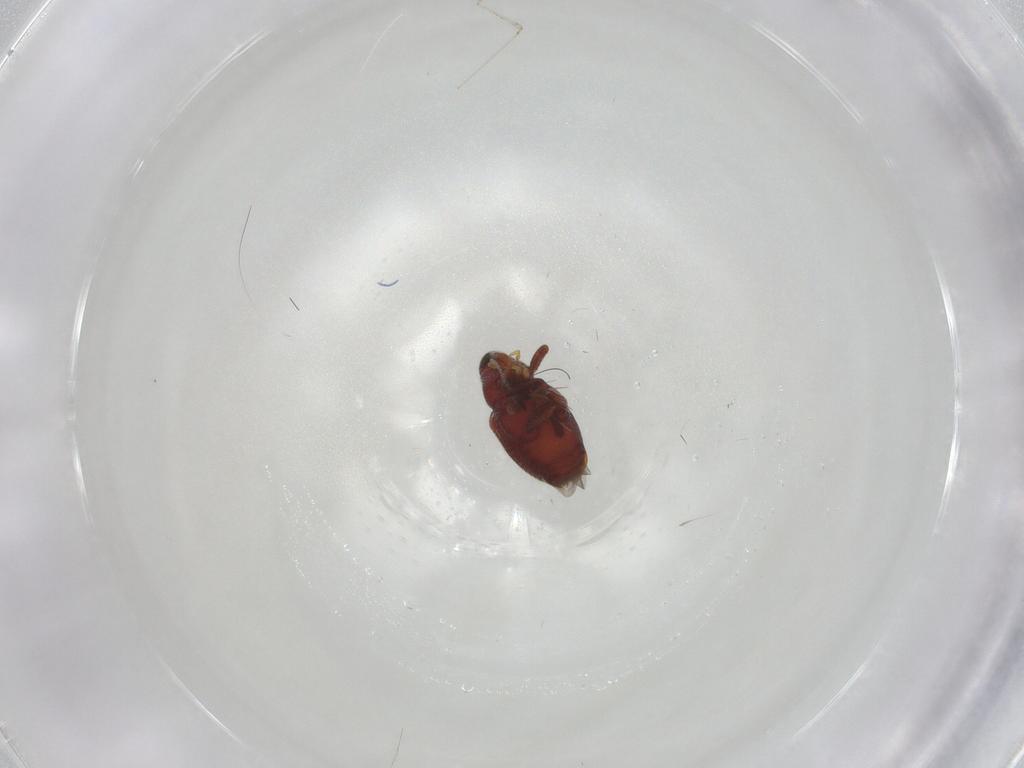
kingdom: Animalia
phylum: Arthropoda
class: Insecta
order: Coleoptera
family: Curculionidae
